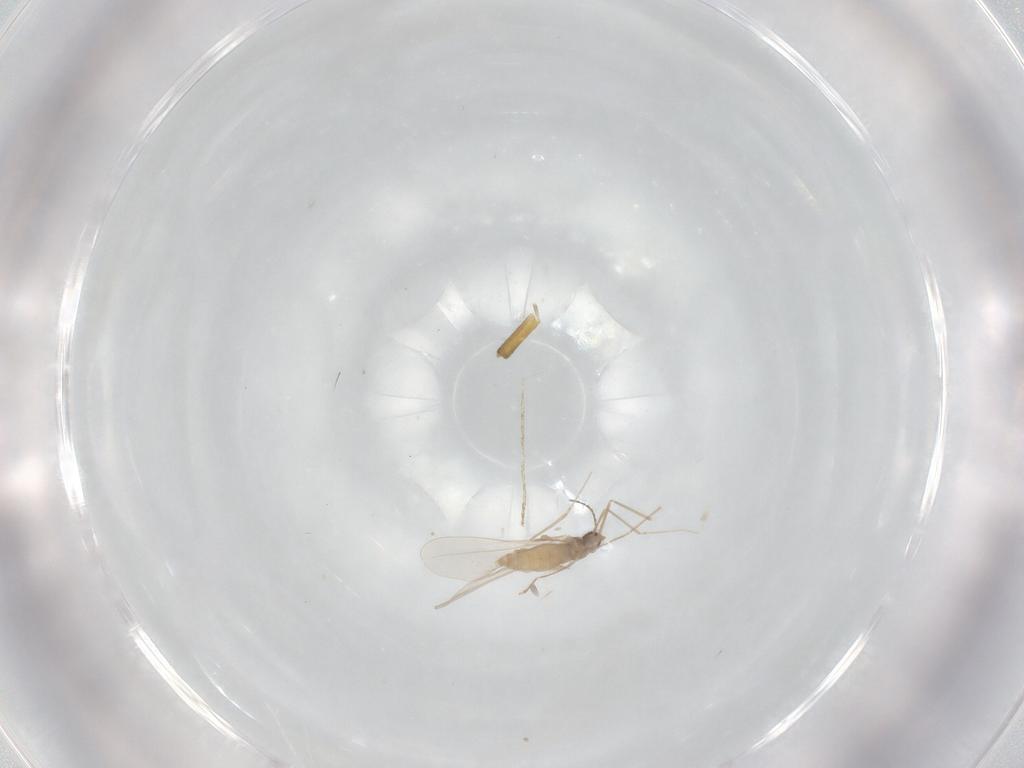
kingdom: Animalia
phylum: Arthropoda
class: Insecta
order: Diptera
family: Cecidomyiidae
